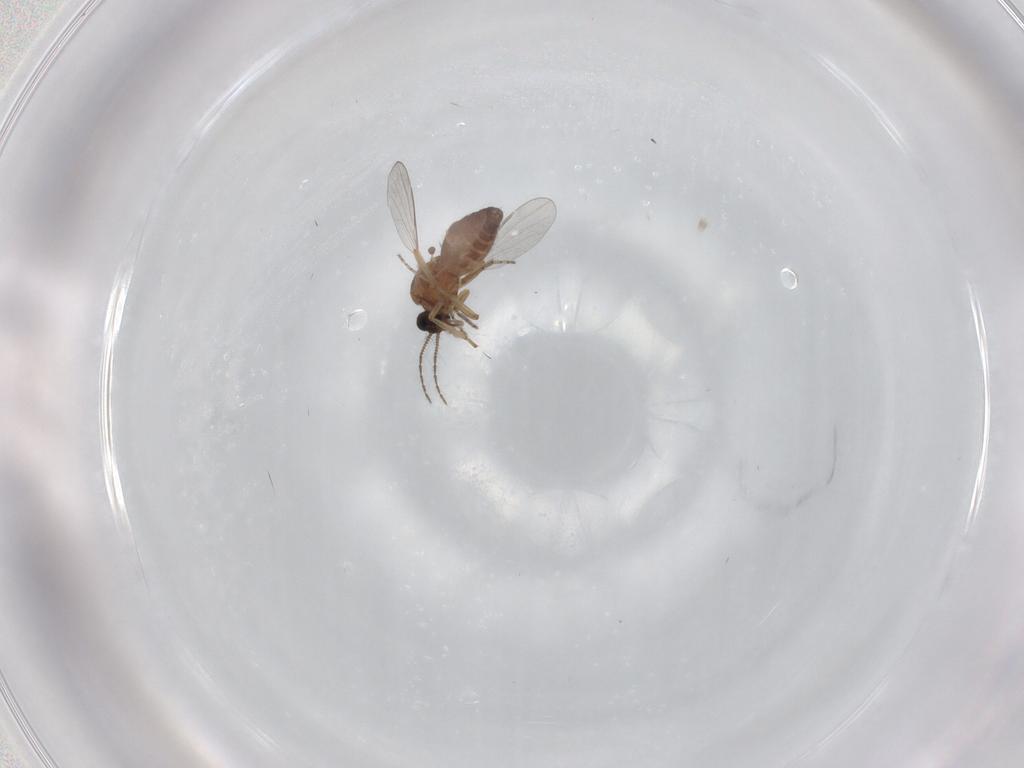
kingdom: Animalia
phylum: Arthropoda
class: Insecta
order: Diptera
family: Ceratopogonidae
